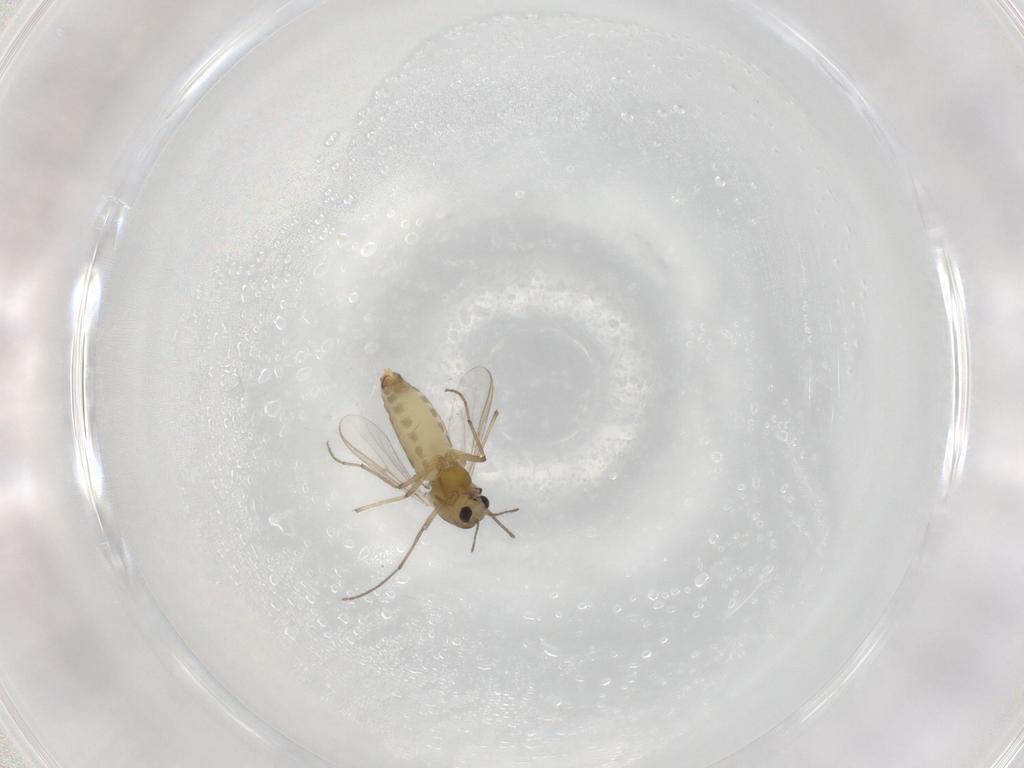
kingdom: Animalia
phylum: Arthropoda
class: Insecta
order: Diptera
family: Chironomidae
